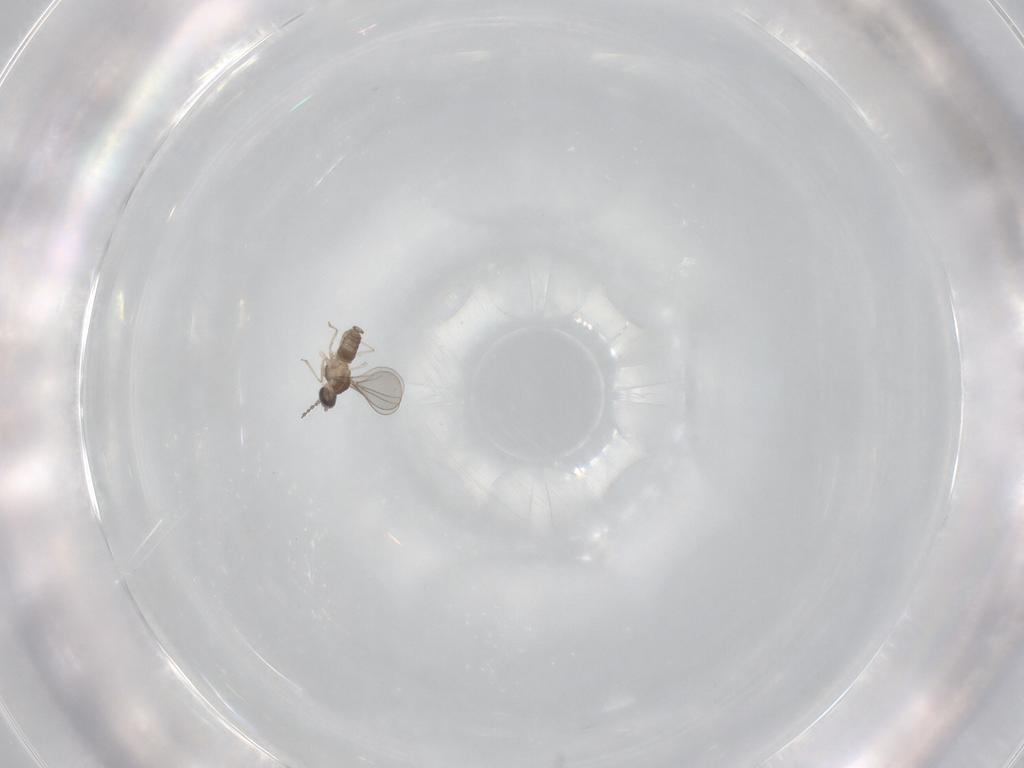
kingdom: Animalia
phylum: Arthropoda
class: Insecta
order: Diptera
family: Cecidomyiidae
